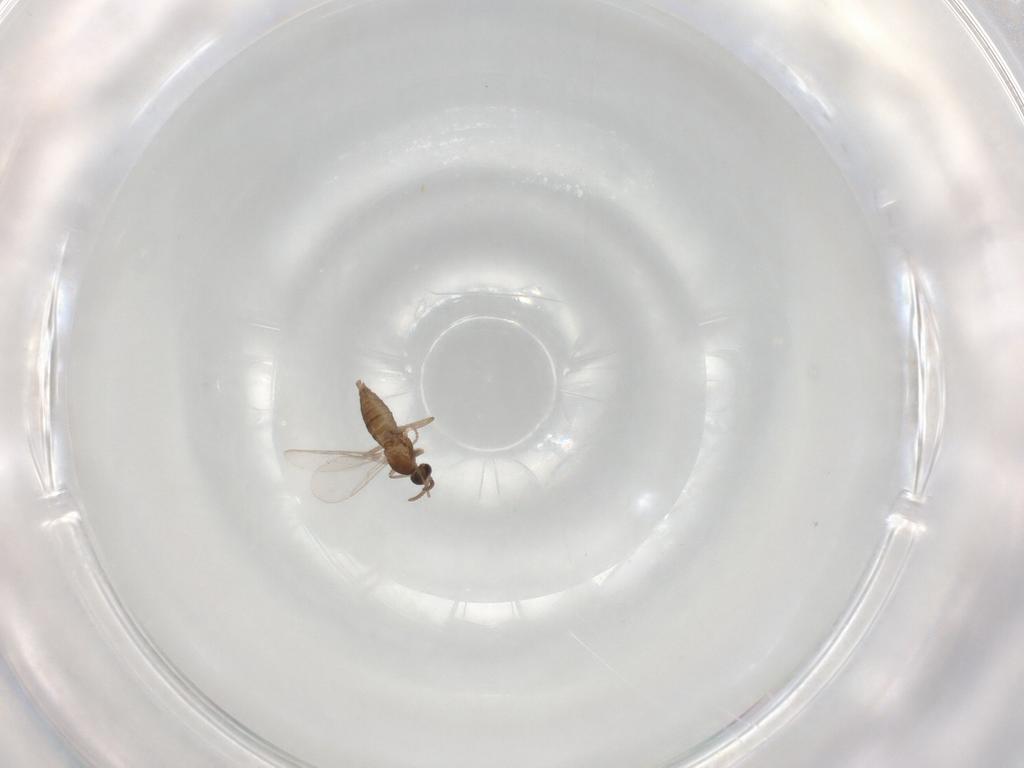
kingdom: Animalia
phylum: Arthropoda
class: Insecta
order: Diptera
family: Cecidomyiidae
